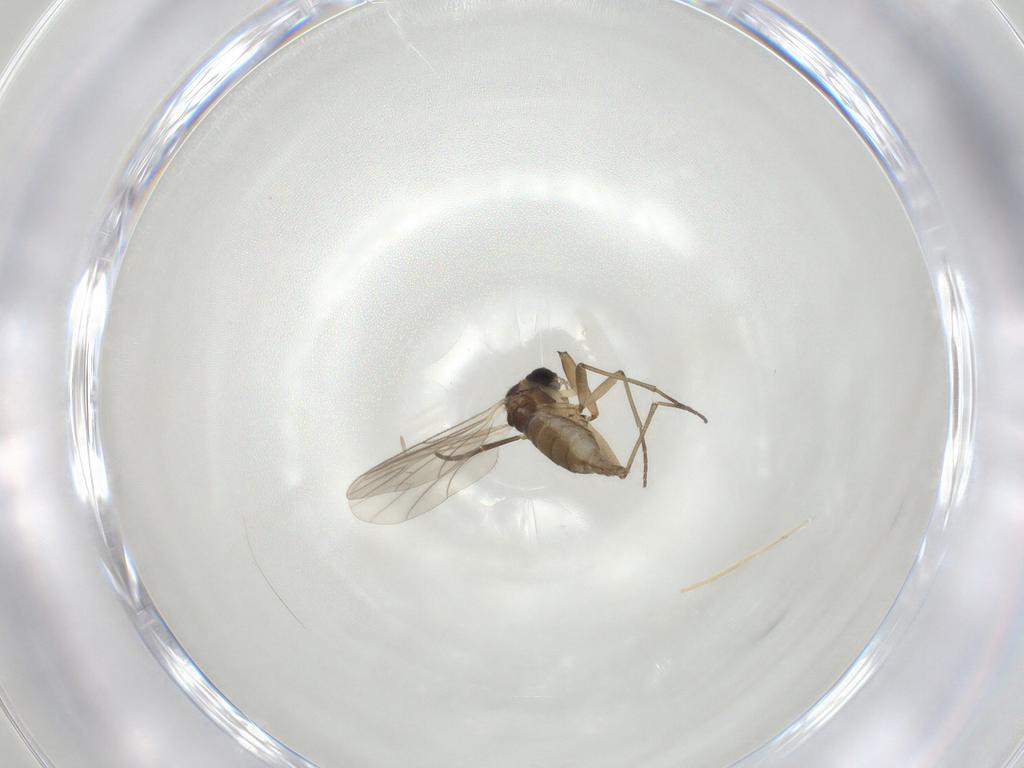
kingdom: Animalia
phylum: Arthropoda
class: Insecta
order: Diptera
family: Sciaridae
